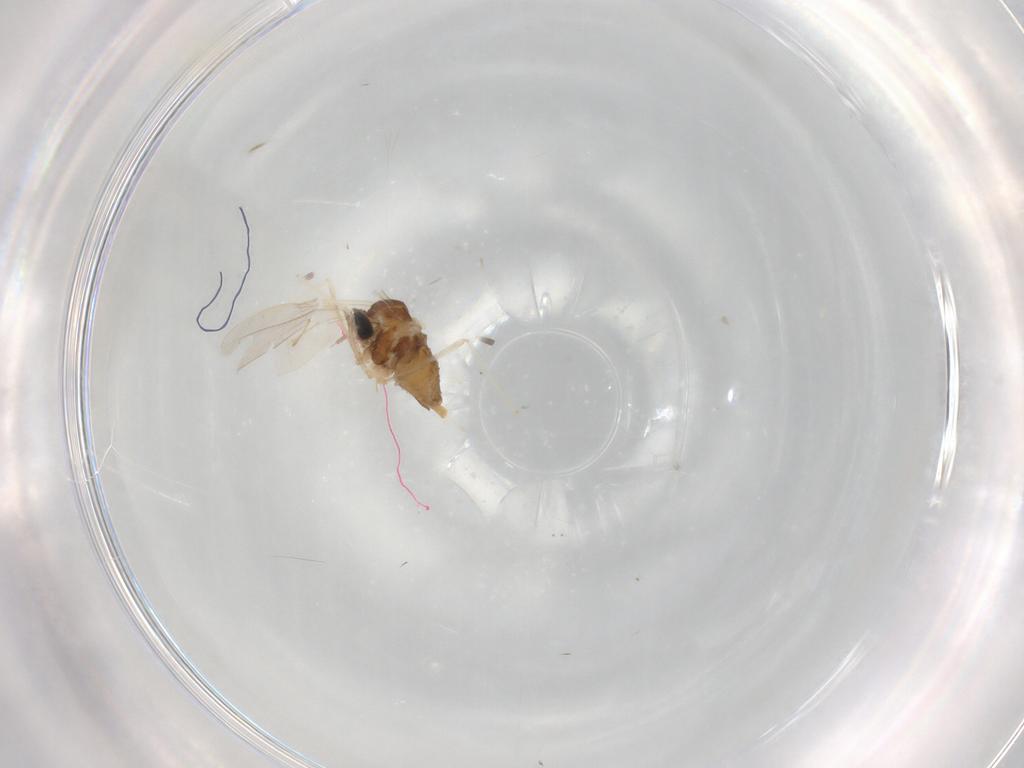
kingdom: Animalia
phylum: Arthropoda
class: Insecta
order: Diptera
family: Cecidomyiidae
